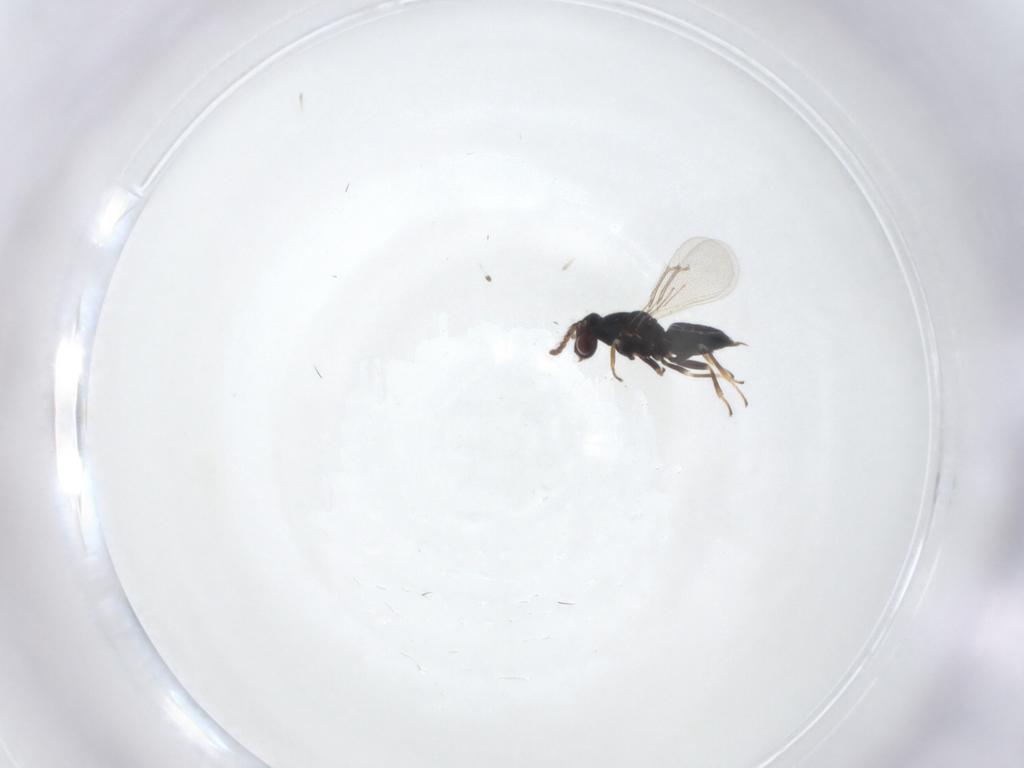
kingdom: Animalia
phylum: Arthropoda
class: Insecta
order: Hymenoptera
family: Eulophidae
